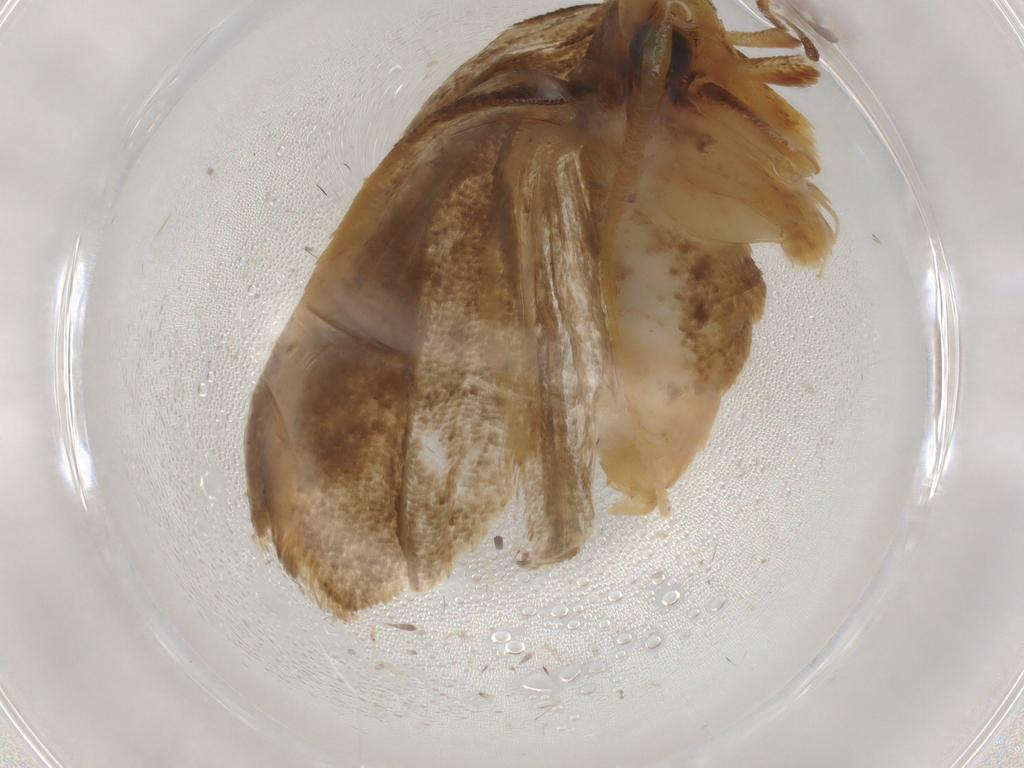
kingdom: Animalia
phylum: Arthropoda
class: Insecta
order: Lepidoptera
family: Lecithoceridae
